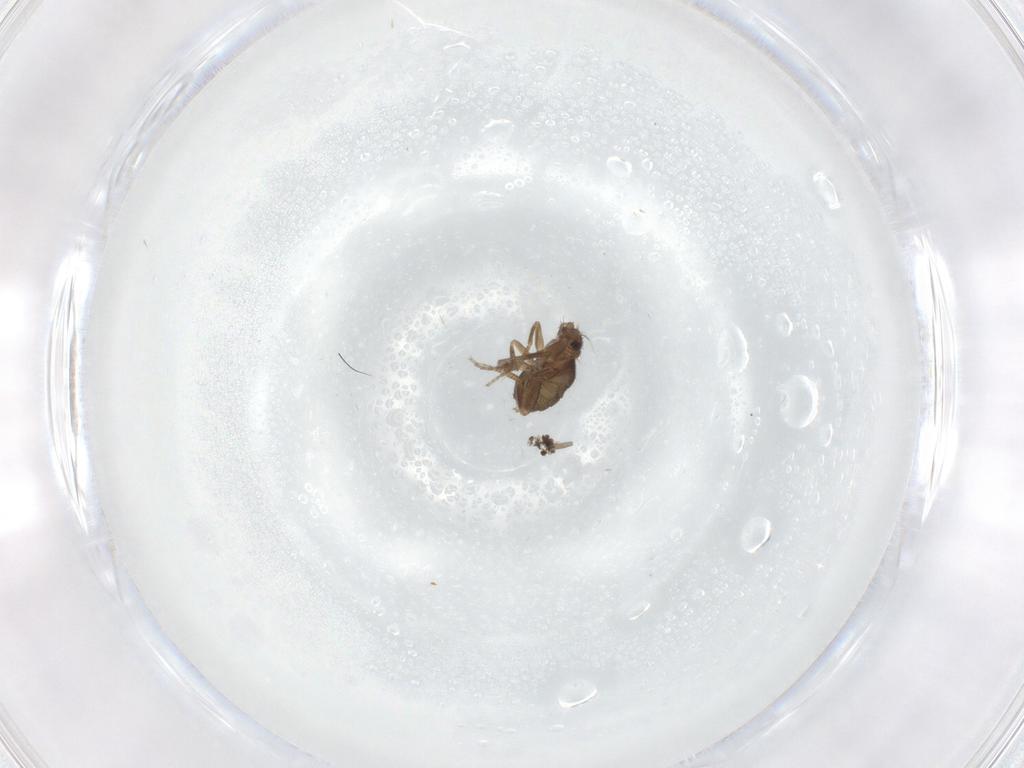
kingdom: Animalia
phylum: Arthropoda
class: Insecta
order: Diptera
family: Phoridae
